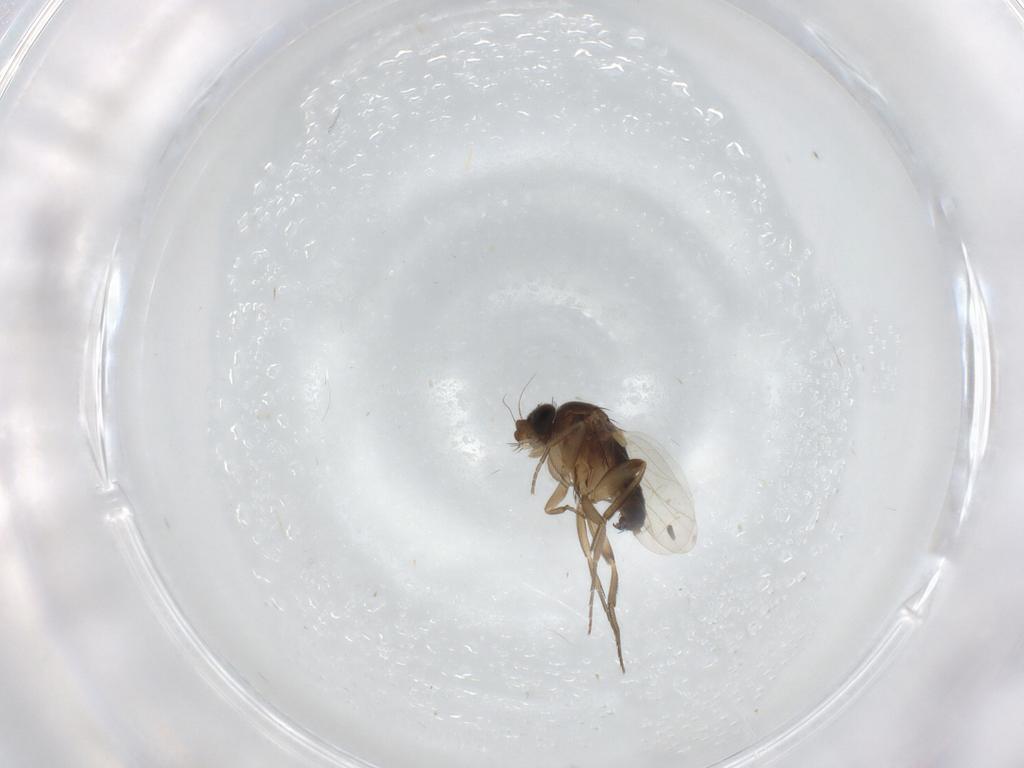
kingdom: Animalia
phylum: Arthropoda
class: Insecta
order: Diptera
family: Hybotidae
